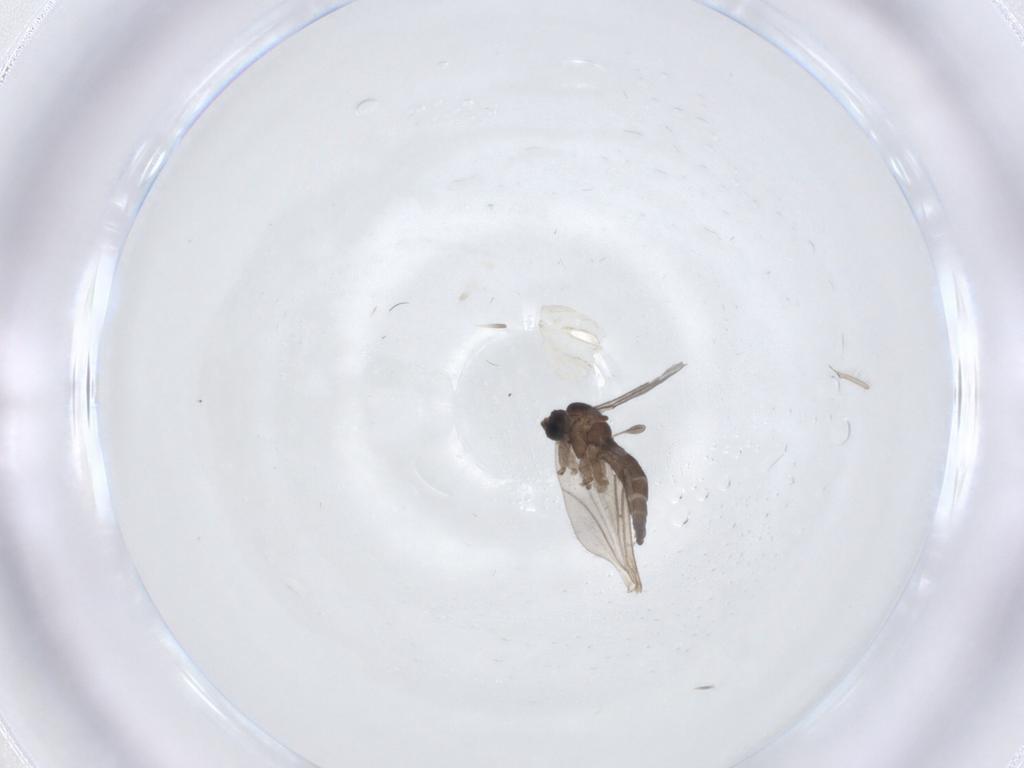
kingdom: Animalia
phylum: Arthropoda
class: Insecta
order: Diptera
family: Sciaridae
